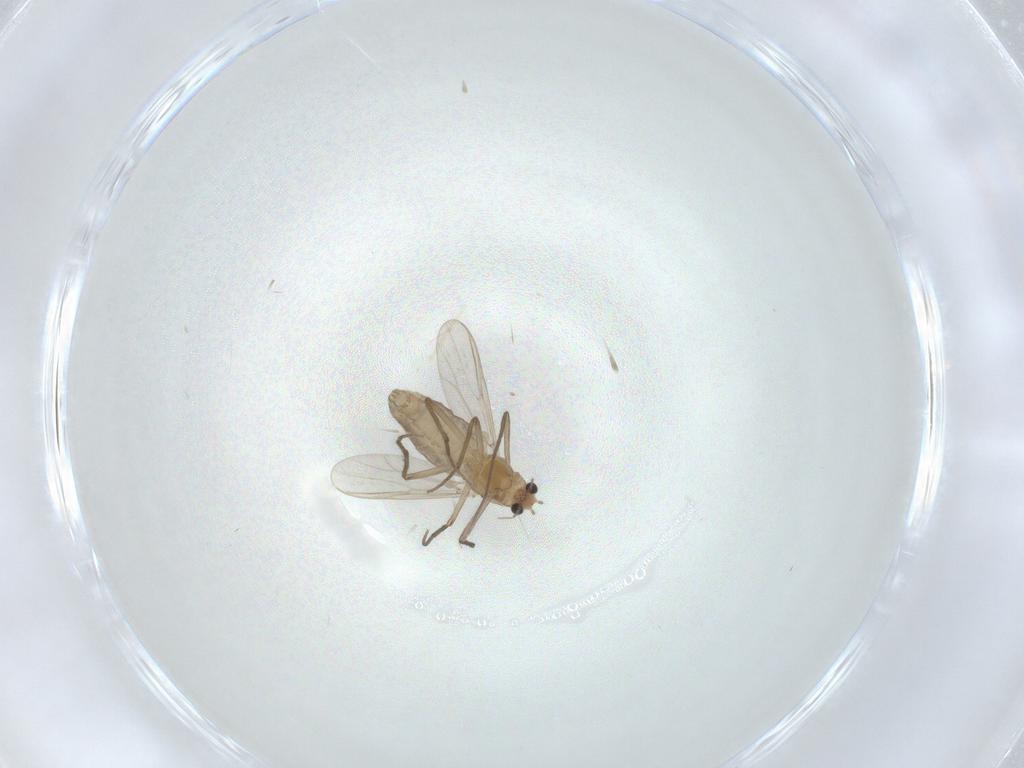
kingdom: Animalia
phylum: Arthropoda
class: Insecta
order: Diptera
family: Chironomidae
